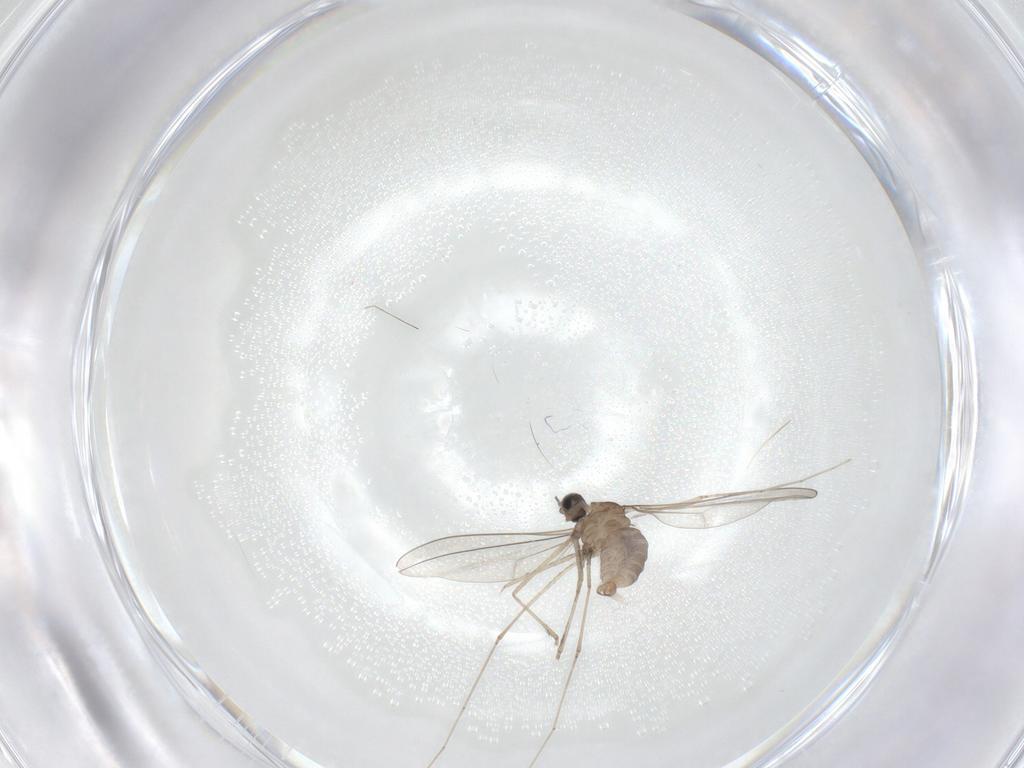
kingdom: Animalia
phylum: Arthropoda
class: Insecta
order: Diptera
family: Cecidomyiidae
